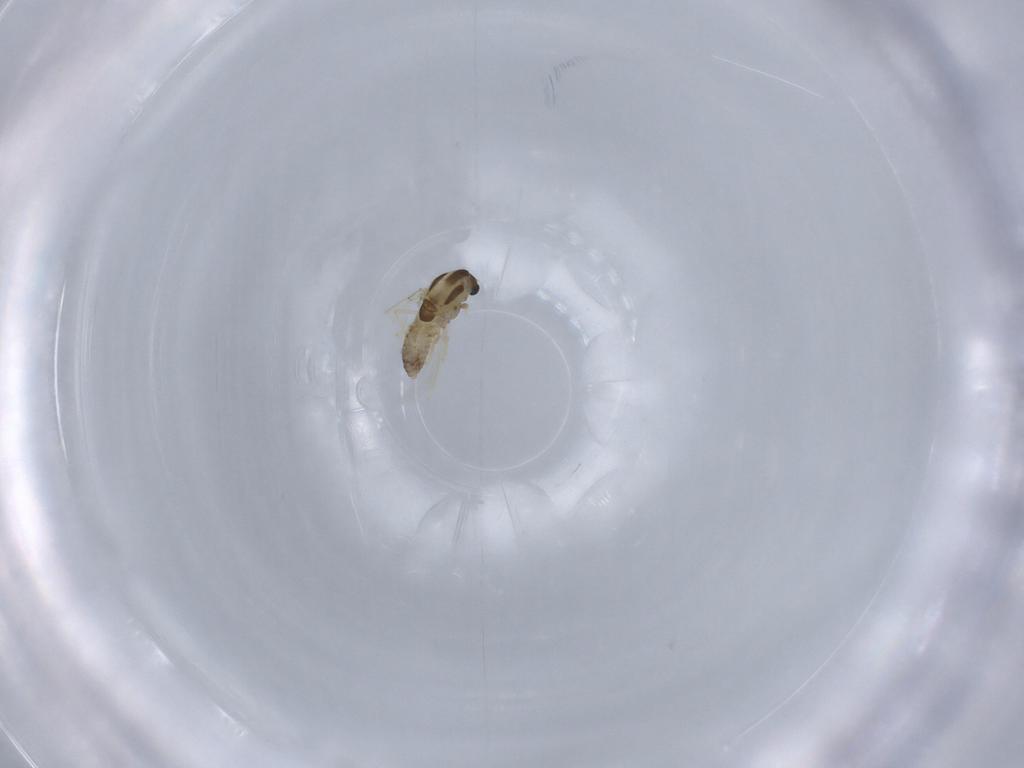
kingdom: Animalia
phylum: Arthropoda
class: Insecta
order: Diptera
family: Chironomidae
